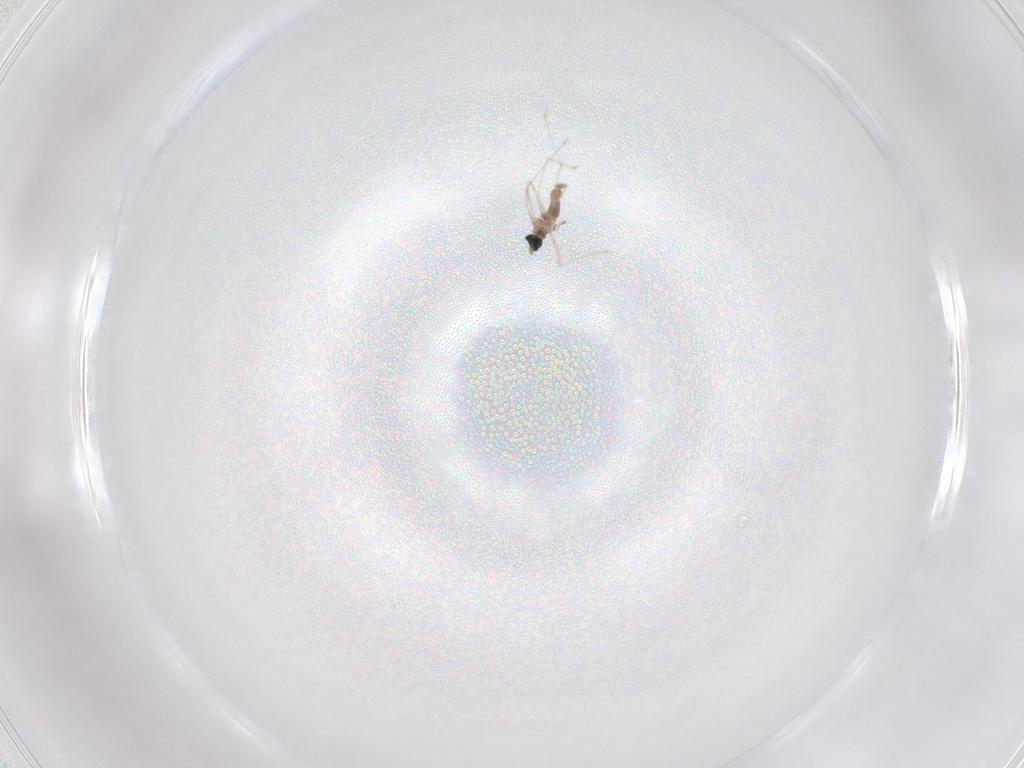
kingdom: Animalia
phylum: Arthropoda
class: Insecta
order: Diptera
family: Cecidomyiidae
